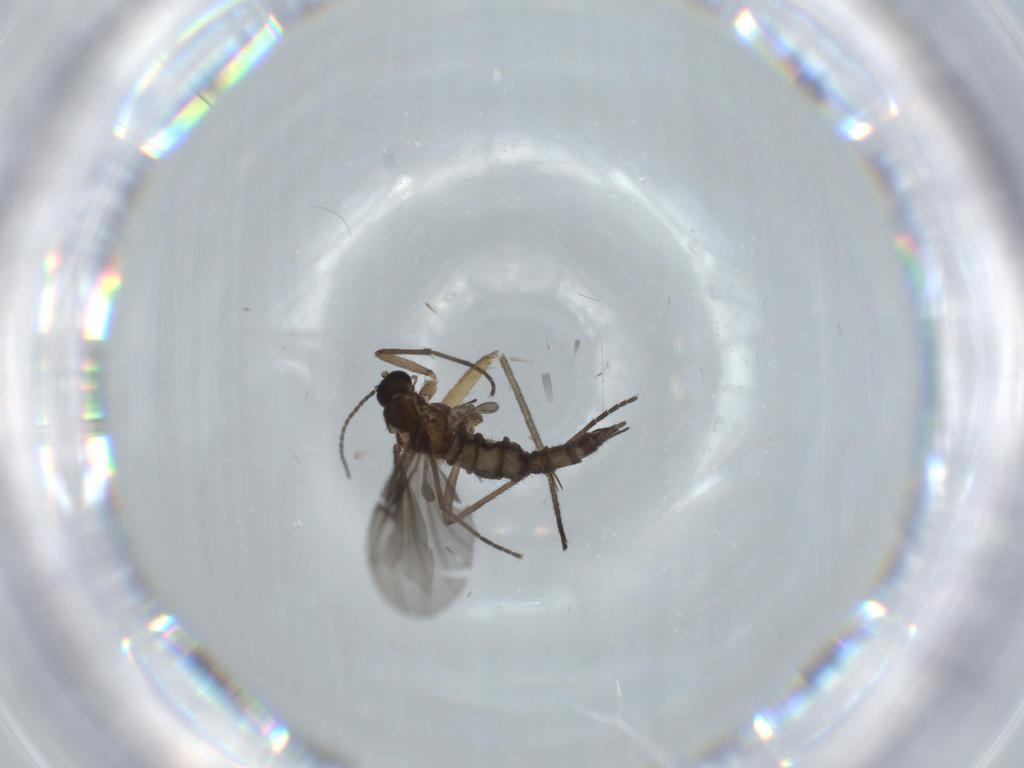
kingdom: Animalia
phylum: Arthropoda
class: Insecta
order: Diptera
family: Sciaridae
